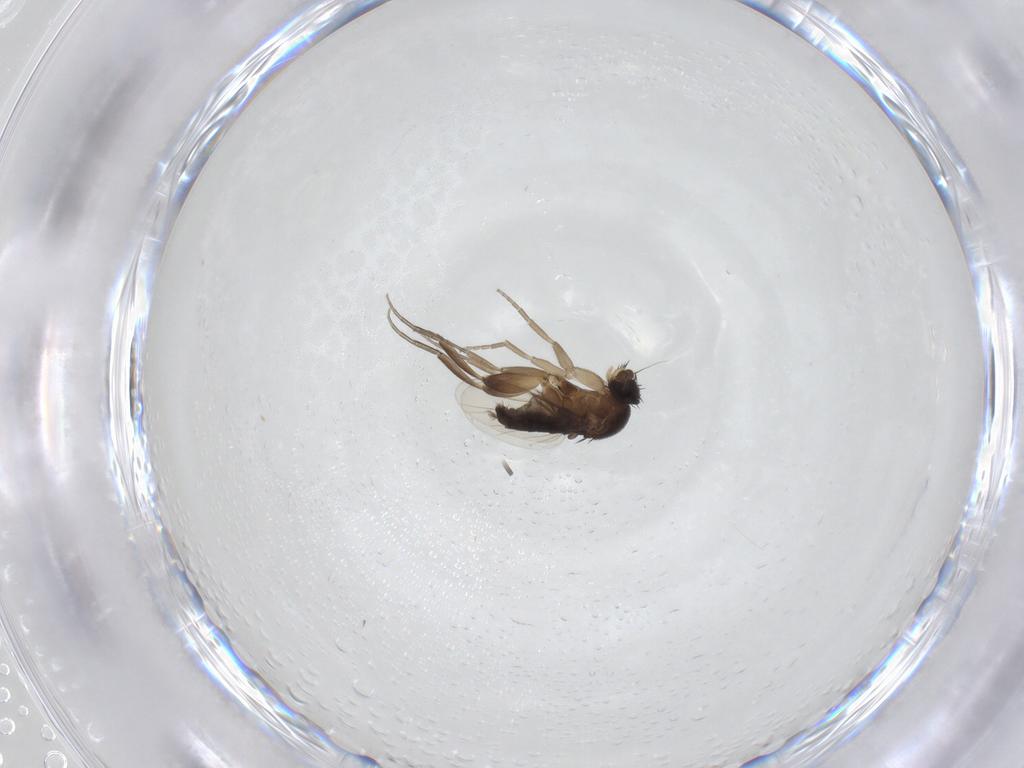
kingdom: Animalia
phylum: Arthropoda
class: Insecta
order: Diptera
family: Phoridae
